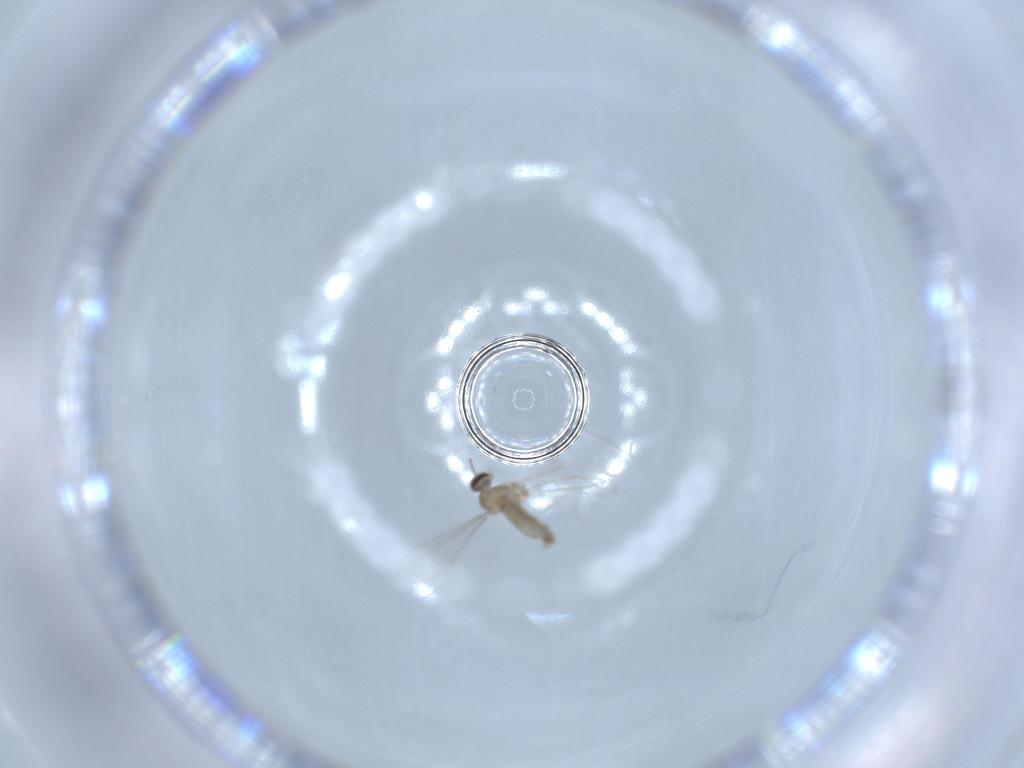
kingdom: Animalia
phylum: Arthropoda
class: Insecta
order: Diptera
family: Cecidomyiidae
